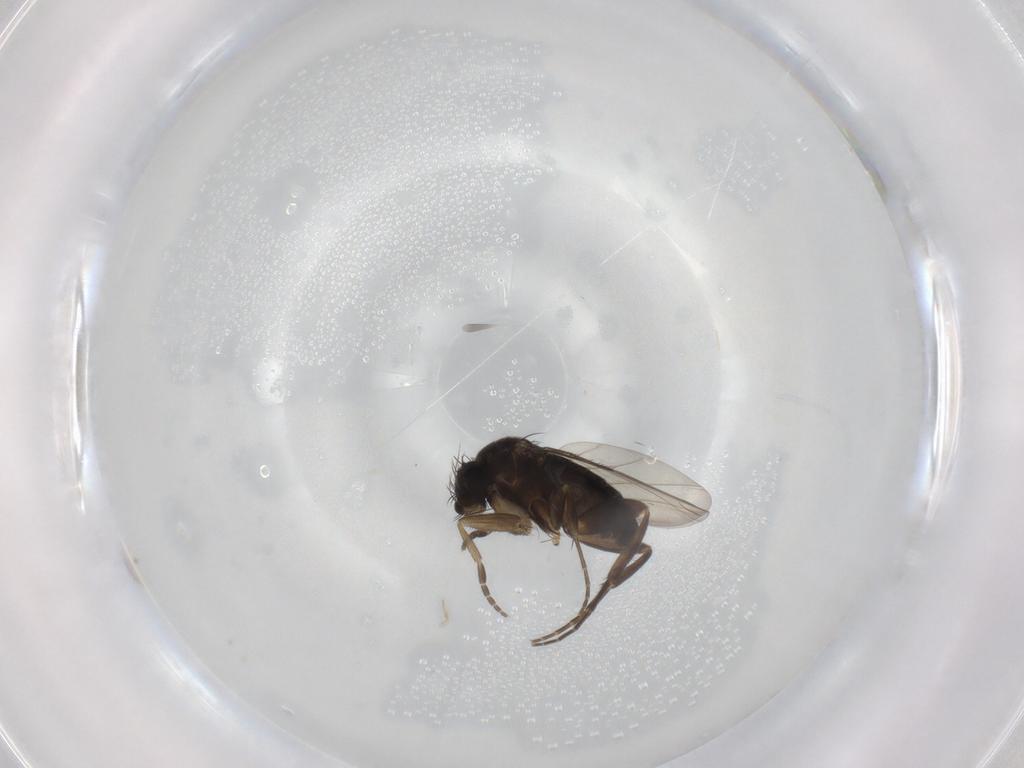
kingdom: Animalia
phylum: Arthropoda
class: Insecta
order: Diptera
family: Phoridae
